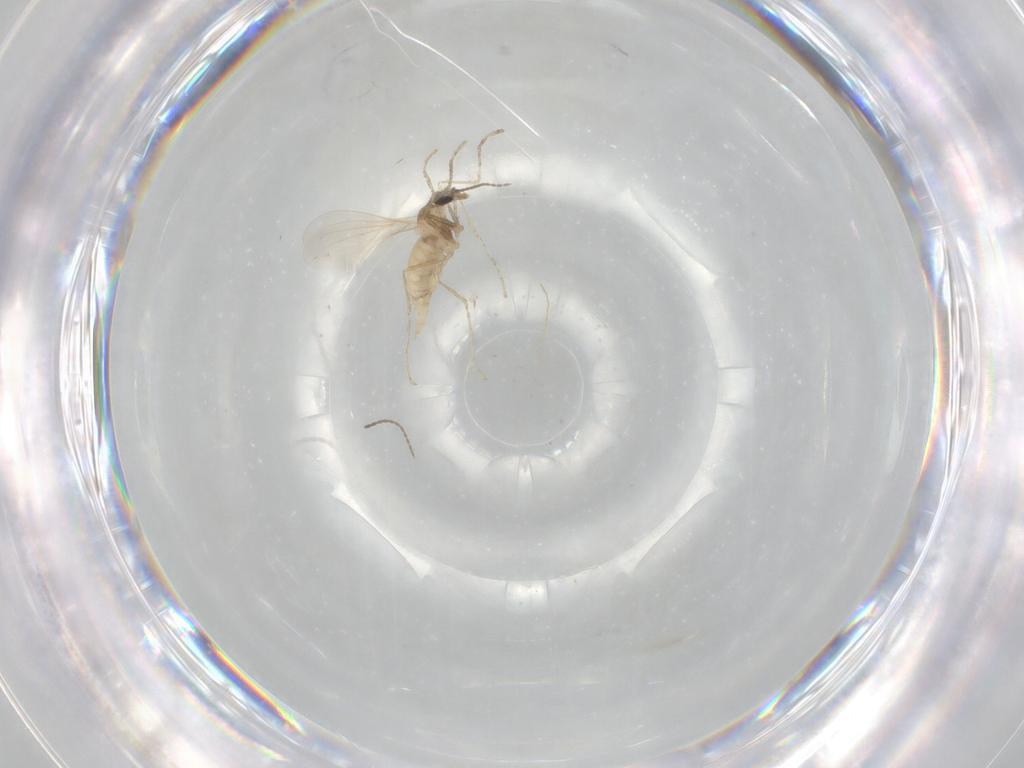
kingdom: Animalia
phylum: Arthropoda
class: Insecta
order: Diptera
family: Cecidomyiidae
